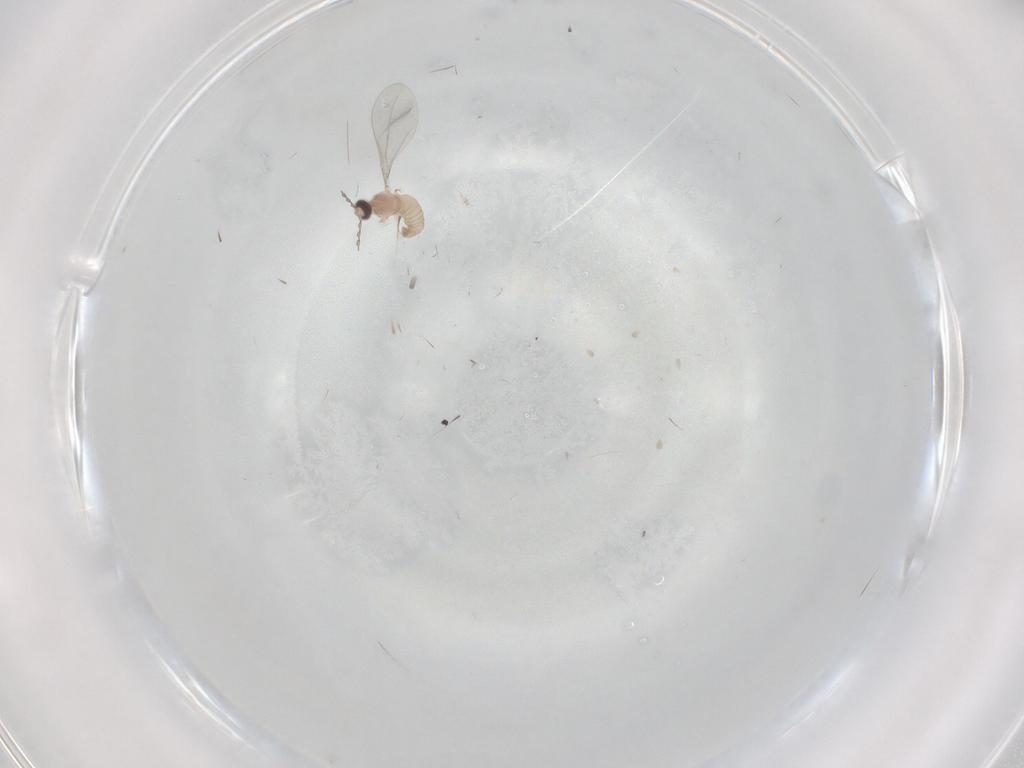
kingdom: Animalia
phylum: Arthropoda
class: Insecta
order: Diptera
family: Cecidomyiidae
